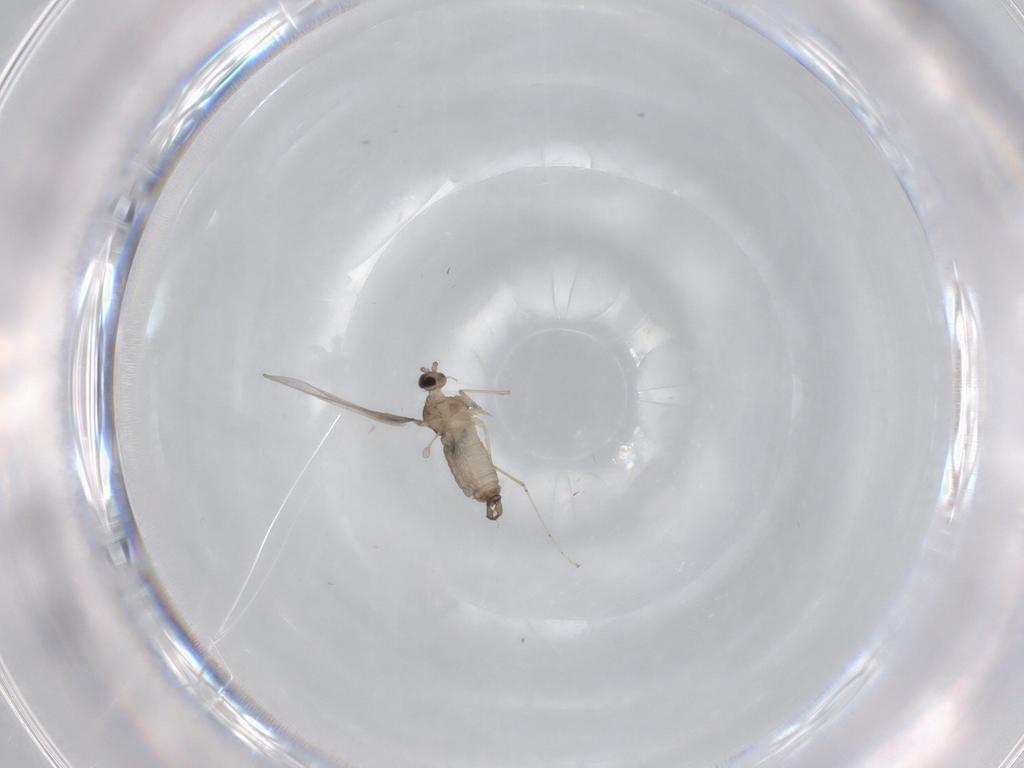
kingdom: Animalia
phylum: Arthropoda
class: Insecta
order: Diptera
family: Cecidomyiidae
